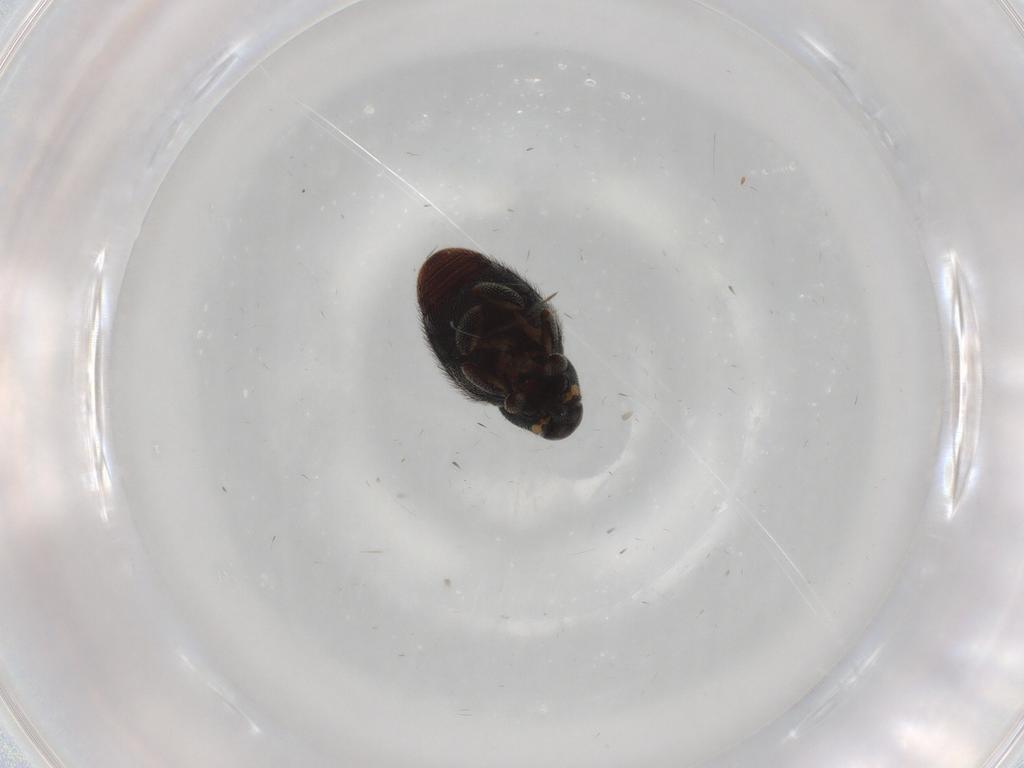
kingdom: Animalia
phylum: Arthropoda
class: Insecta
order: Coleoptera
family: Curculionidae
